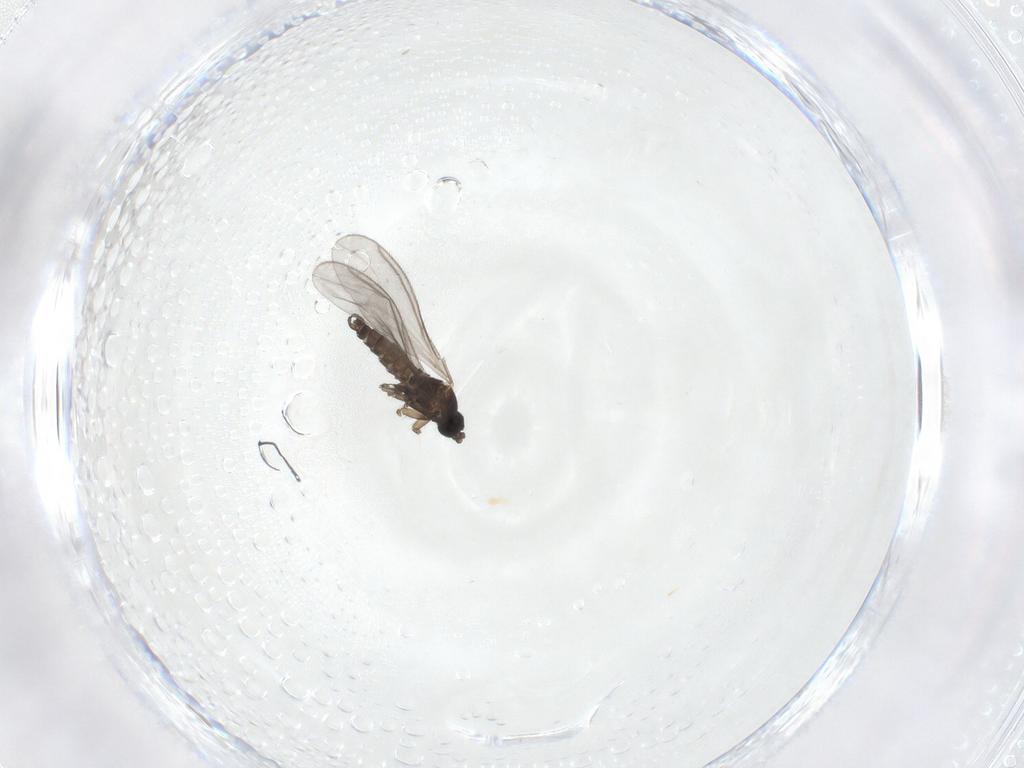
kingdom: Animalia
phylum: Arthropoda
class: Insecta
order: Diptera
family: Sciaridae
